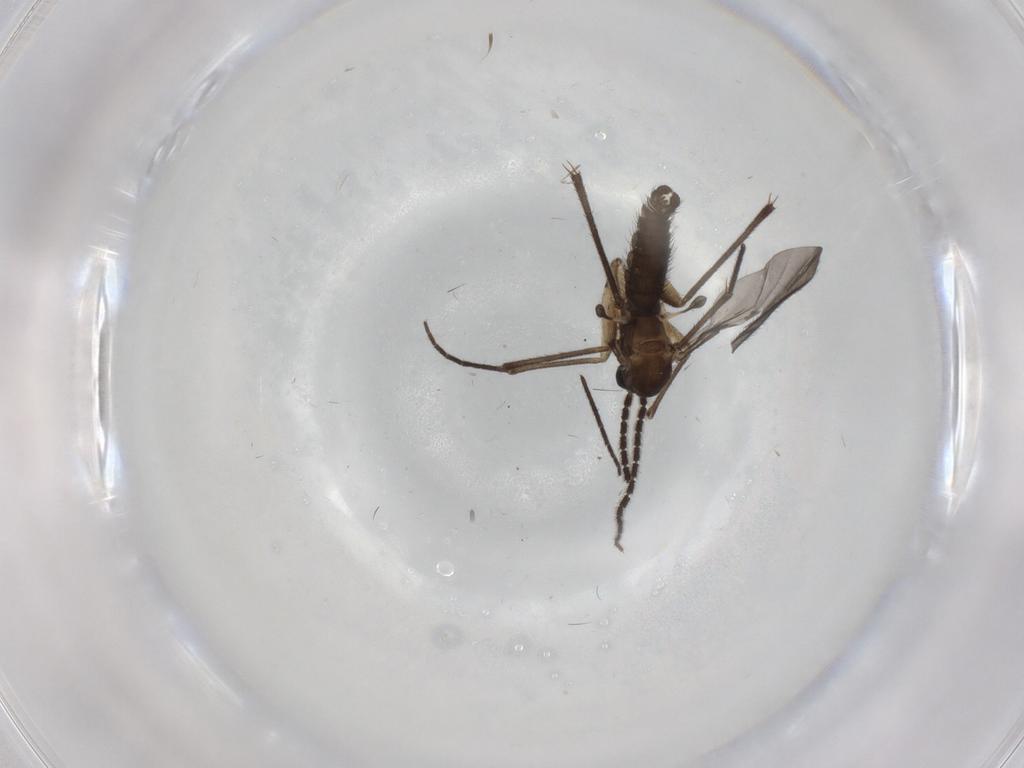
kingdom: Animalia
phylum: Arthropoda
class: Insecta
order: Diptera
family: Sciaridae
